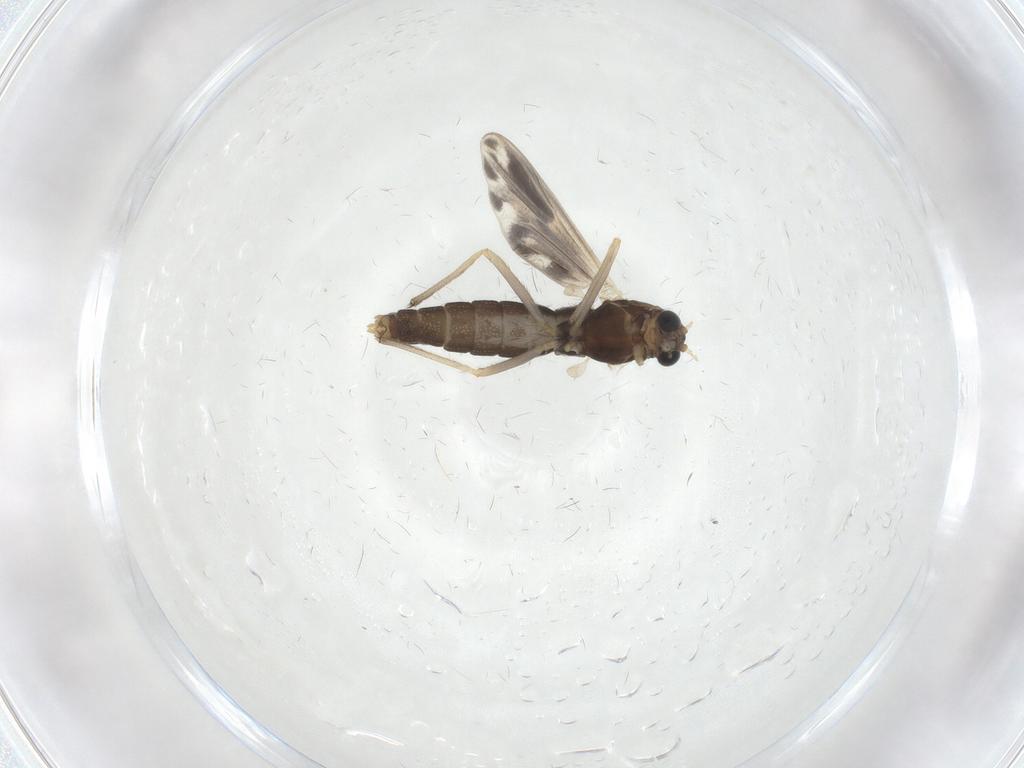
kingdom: Animalia
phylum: Arthropoda
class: Insecta
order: Diptera
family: Chironomidae
